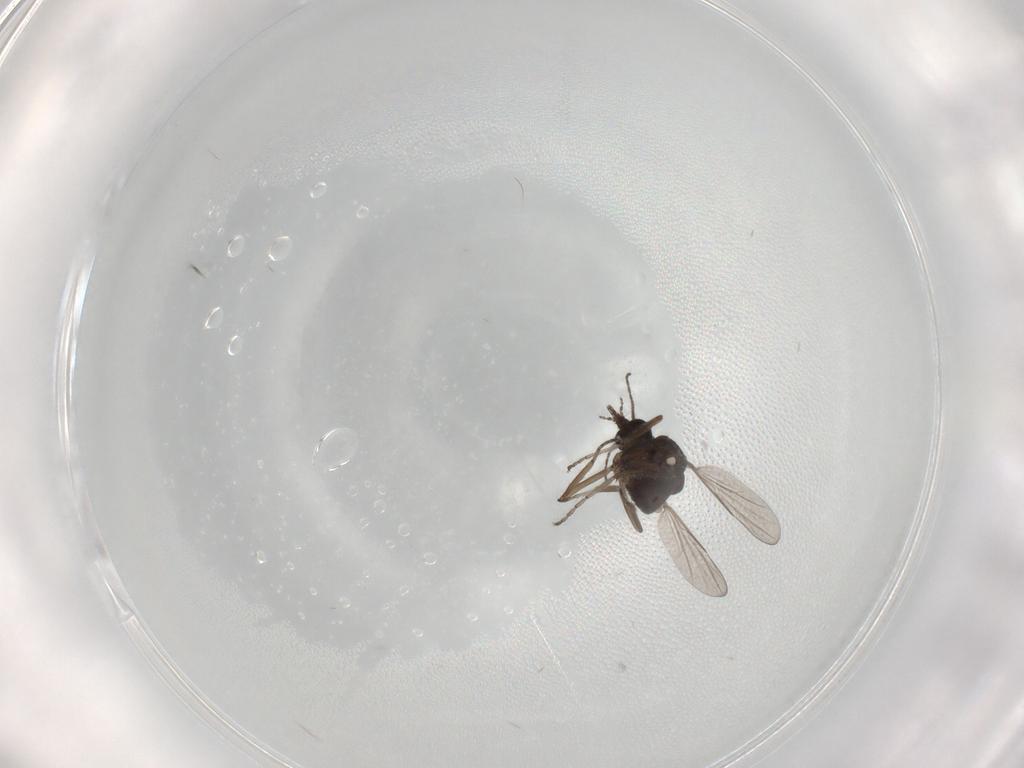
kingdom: Animalia
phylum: Arthropoda
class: Insecta
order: Diptera
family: Ceratopogonidae
